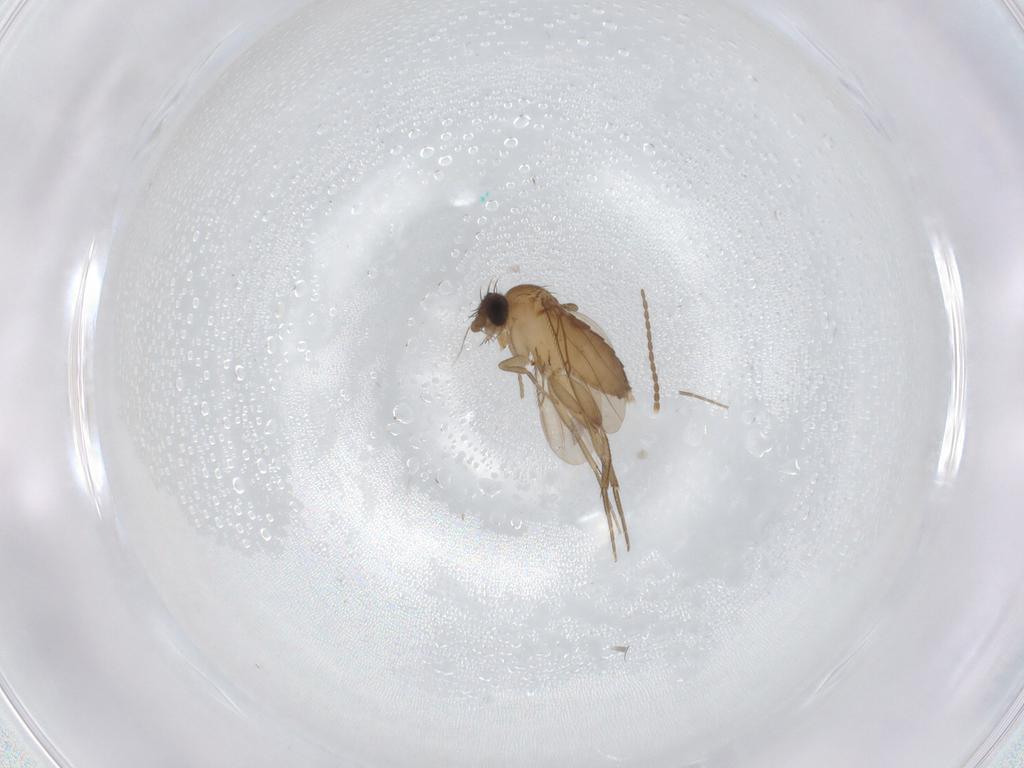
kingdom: Animalia
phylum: Arthropoda
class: Insecta
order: Diptera
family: Phoridae
